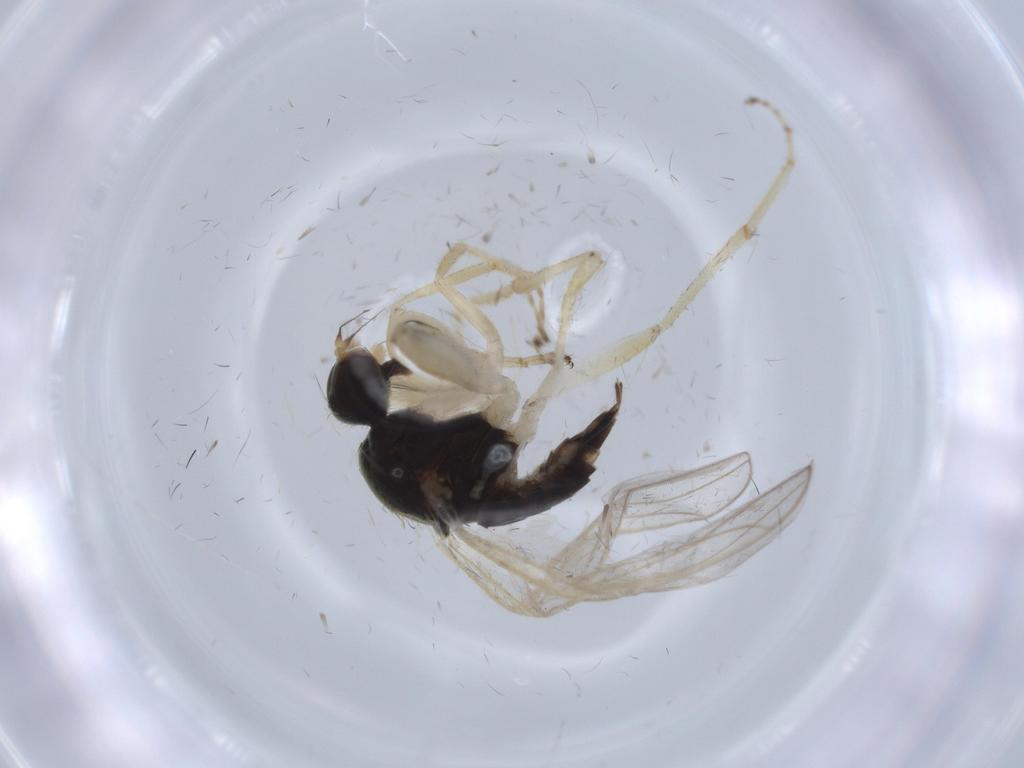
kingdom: Animalia
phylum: Arthropoda
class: Insecta
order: Diptera
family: Hybotidae
